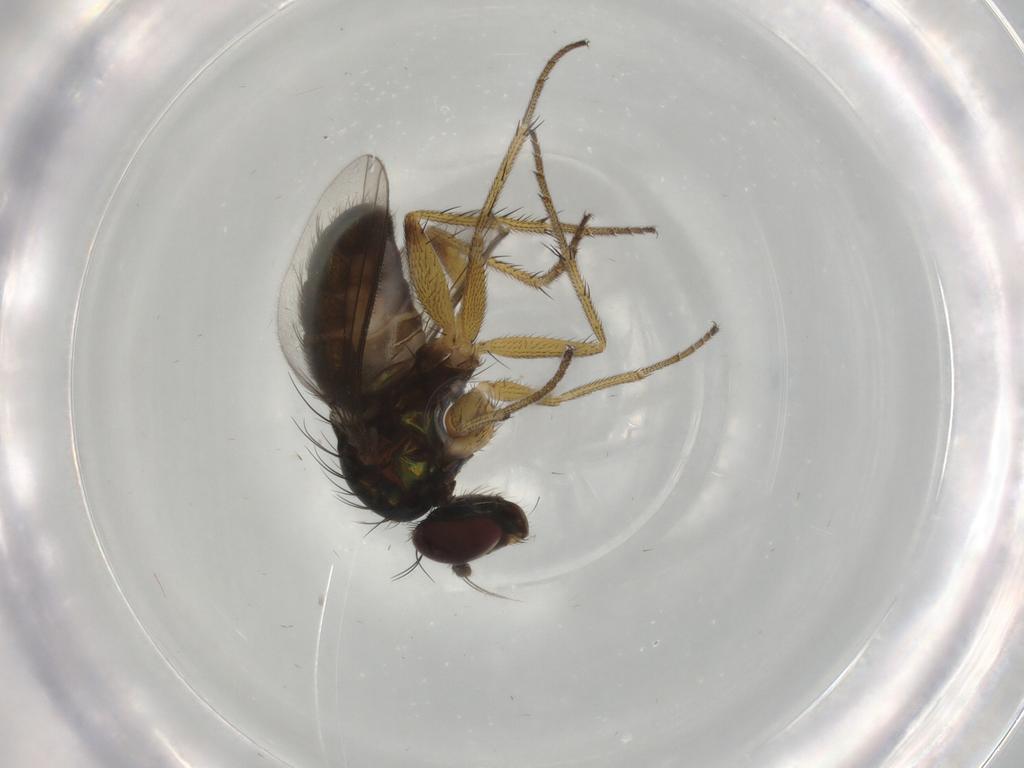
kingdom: Animalia
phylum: Arthropoda
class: Insecta
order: Diptera
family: Dolichopodidae
